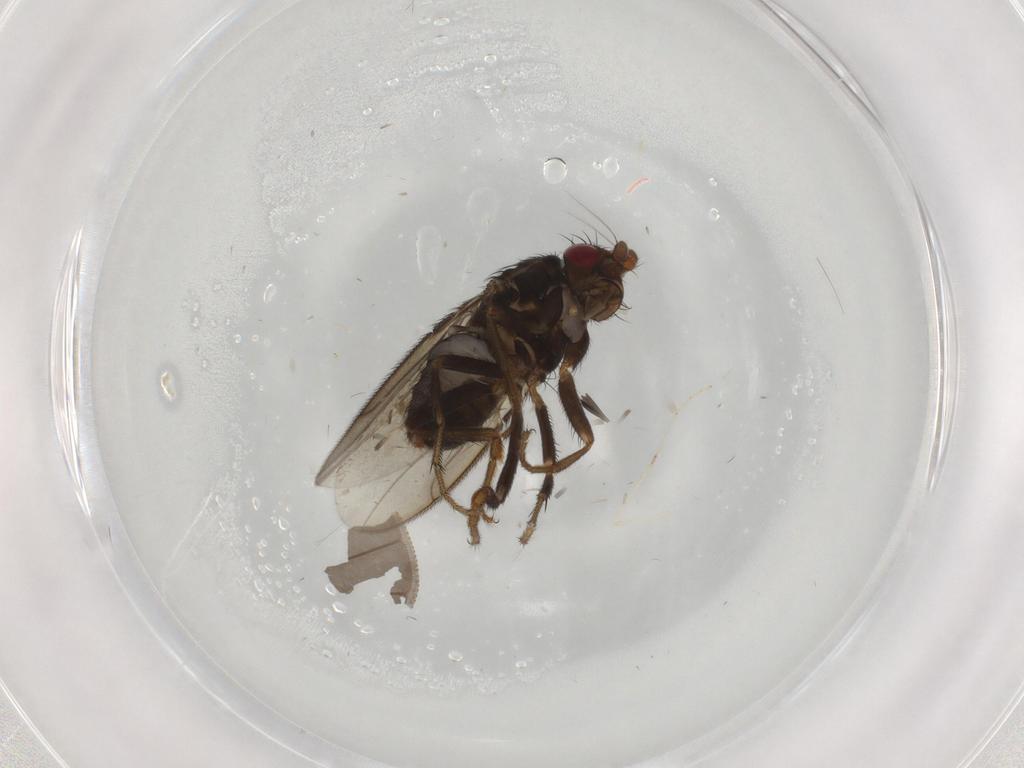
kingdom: Animalia
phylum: Arthropoda
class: Insecta
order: Diptera
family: Sphaeroceridae
